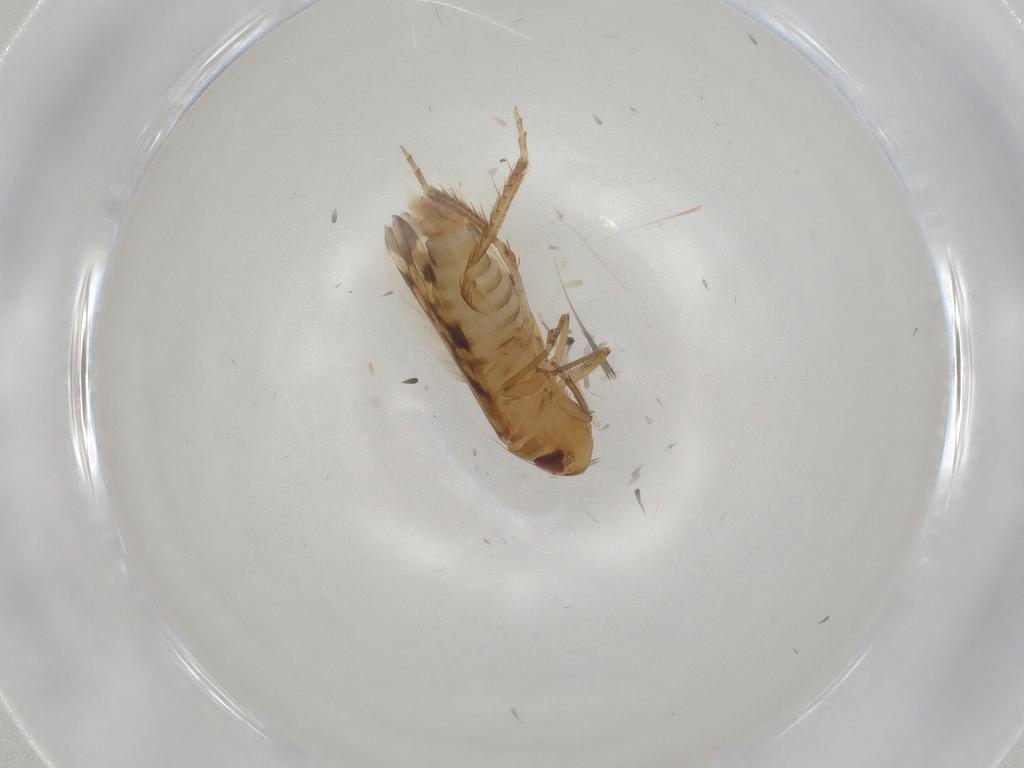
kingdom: Animalia
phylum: Arthropoda
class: Insecta
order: Hemiptera
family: Cicadellidae
